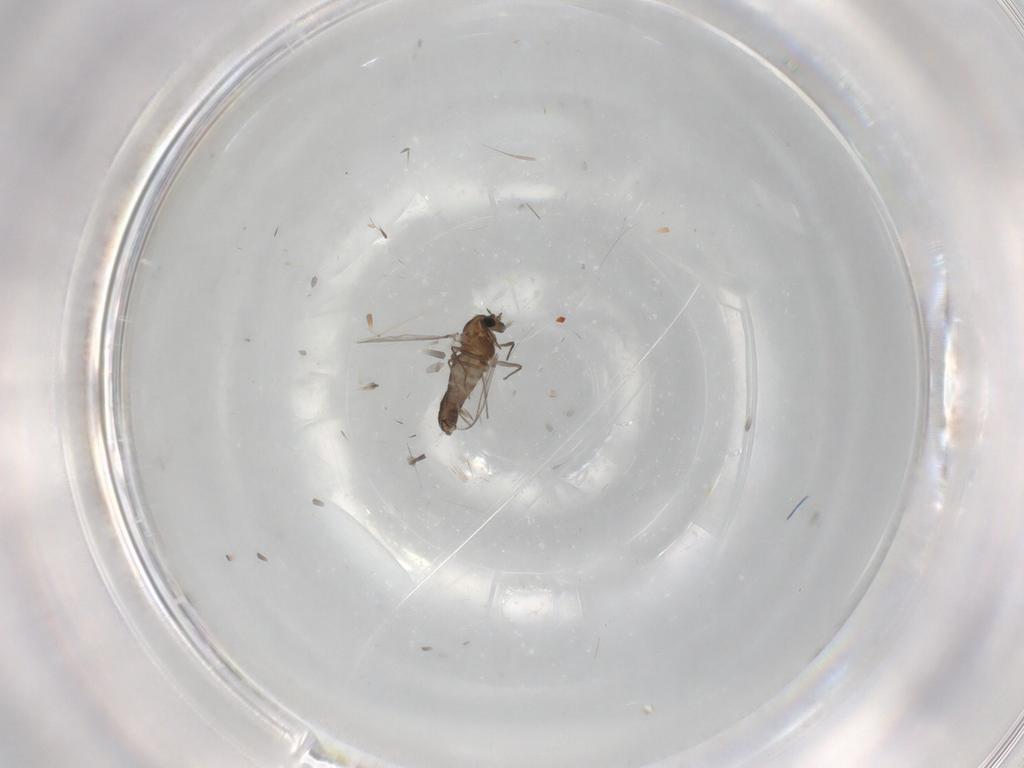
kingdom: Animalia
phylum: Arthropoda
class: Insecta
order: Diptera
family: Chironomidae
